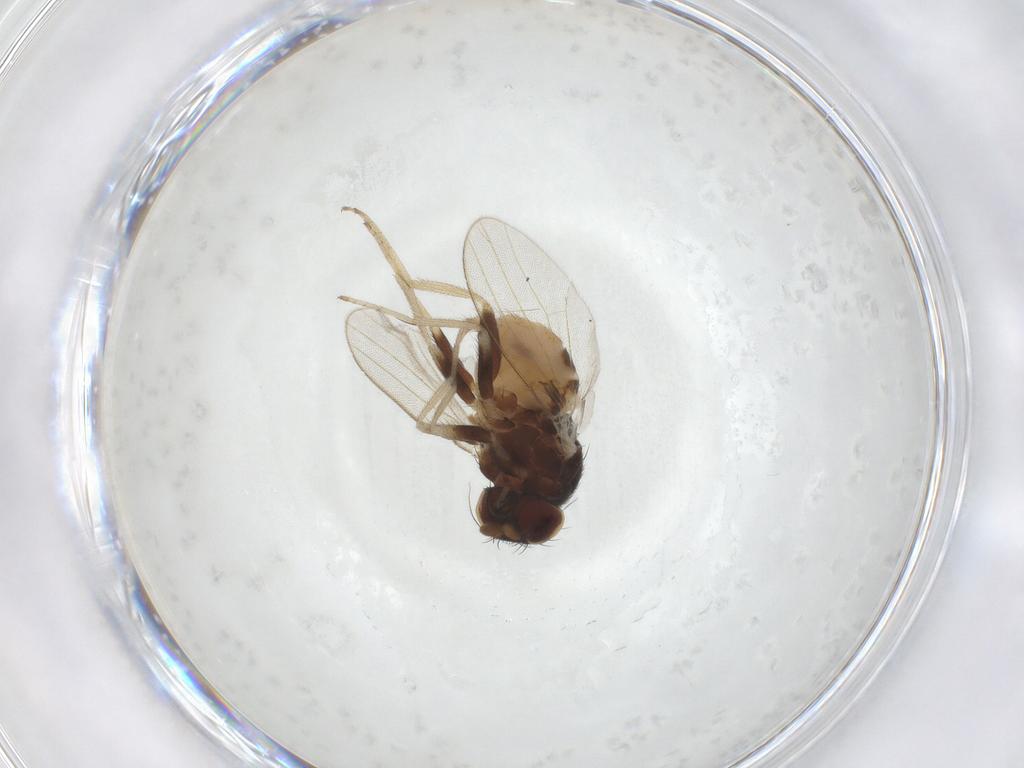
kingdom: Animalia
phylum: Arthropoda
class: Insecta
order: Diptera
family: Milichiidae
